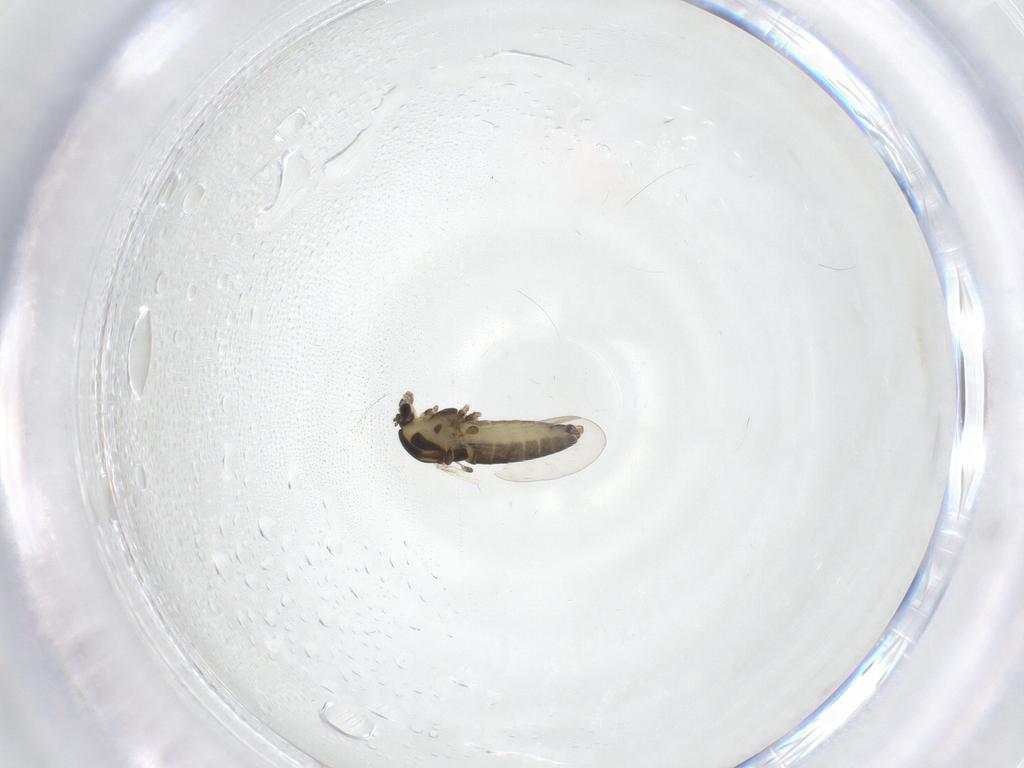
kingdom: Animalia
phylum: Arthropoda
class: Insecta
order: Diptera
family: Chironomidae
